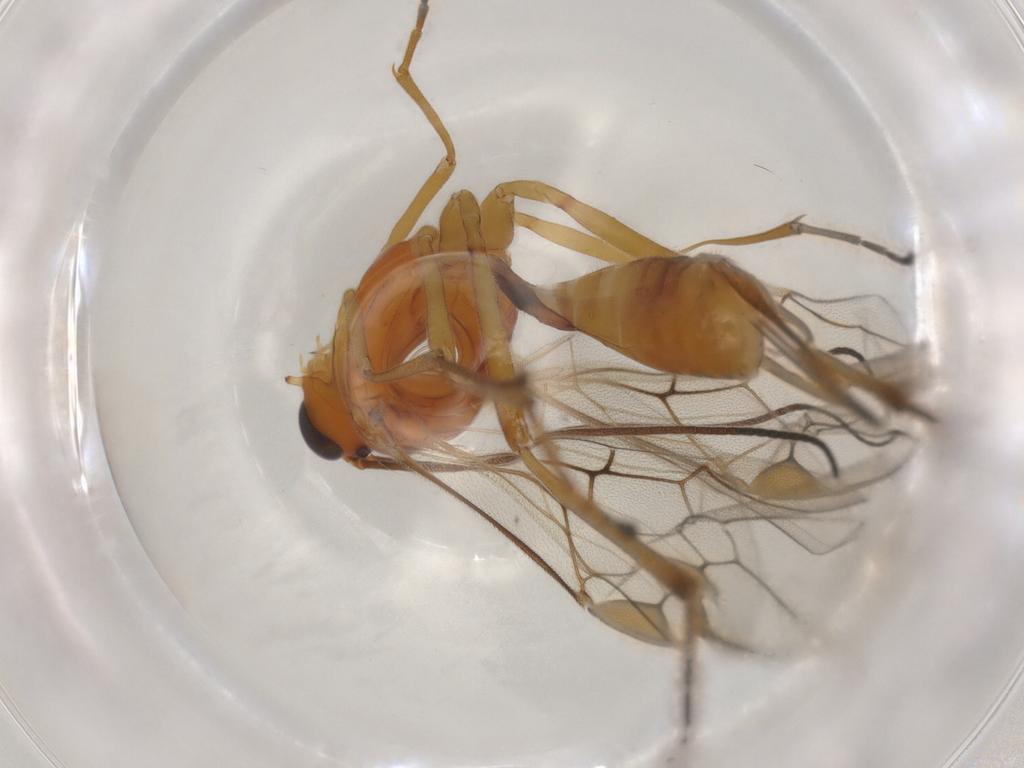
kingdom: Animalia
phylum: Arthropoda
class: Insecta
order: Hymenoptera
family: Braconidae
